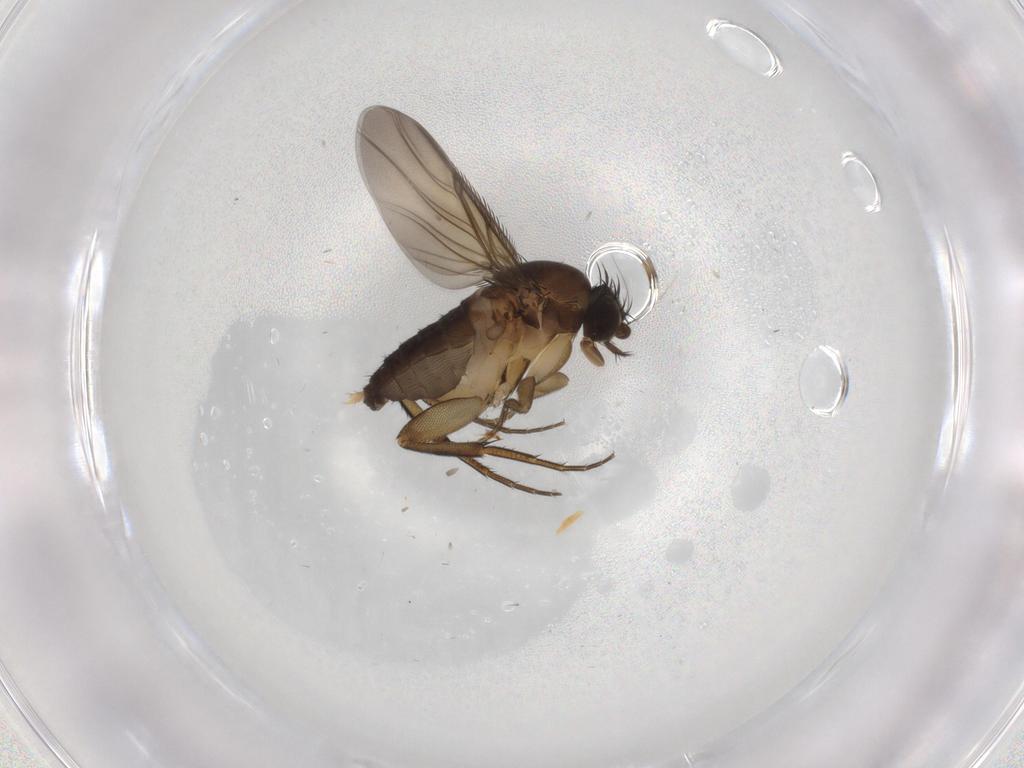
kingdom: Animalia
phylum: Arthropoda
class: Insecta
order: Diptera
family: Phoridae
